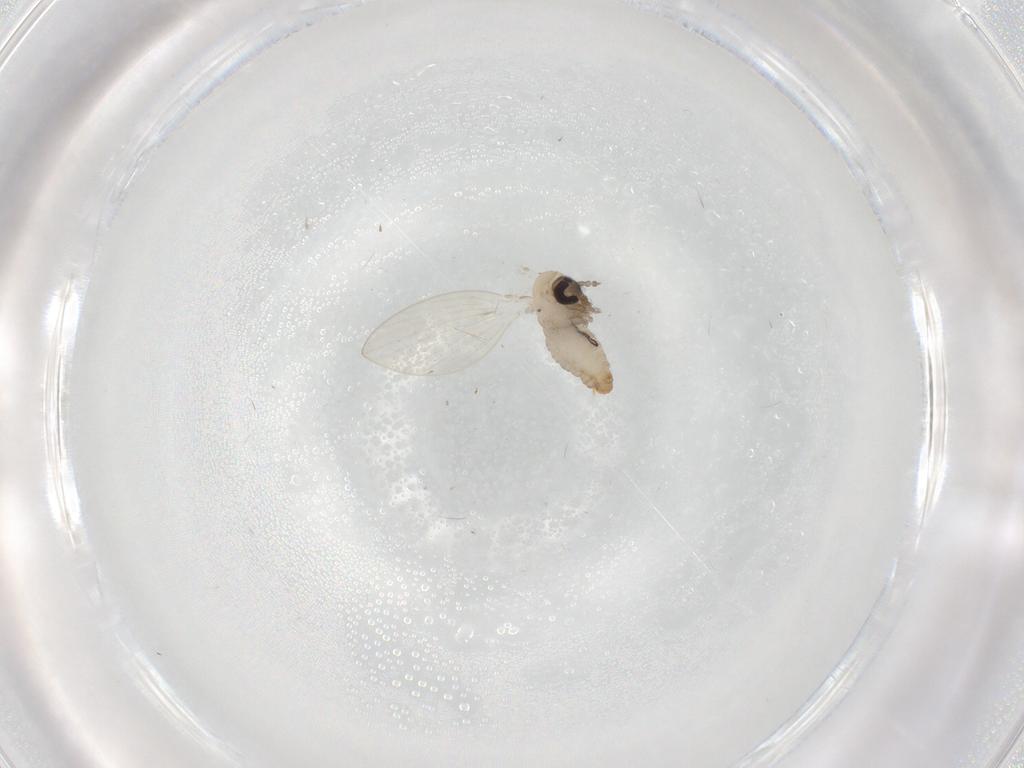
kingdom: Animalia
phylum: Arthropoda
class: Insecta
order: Diptera
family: Psychodidae
